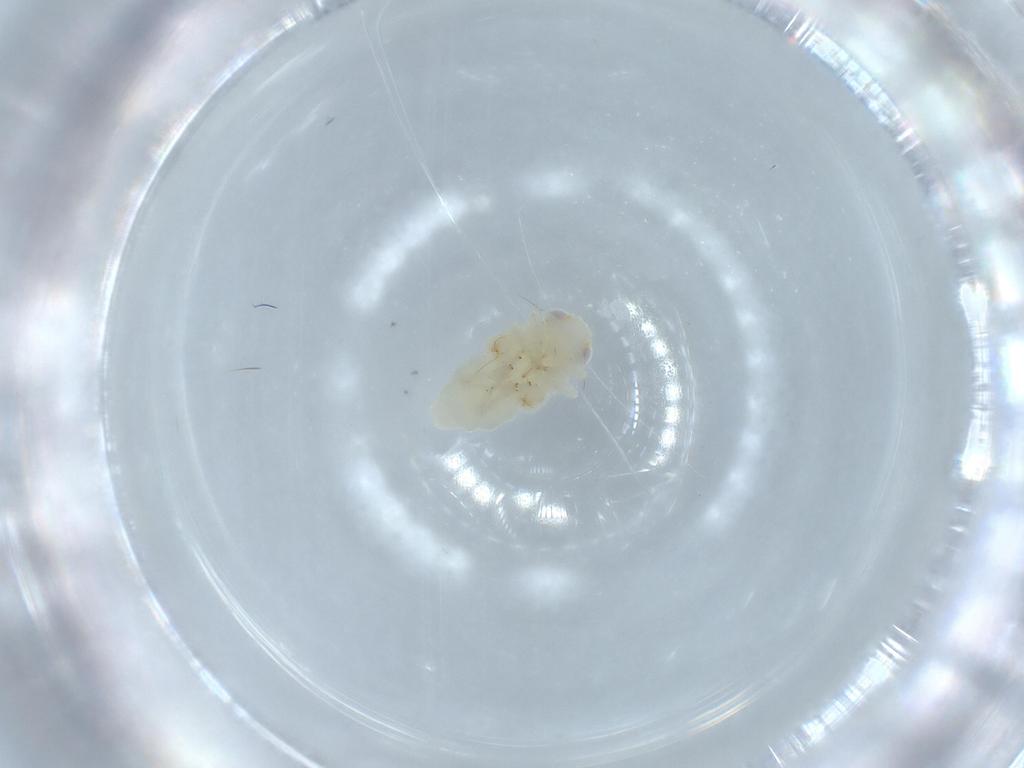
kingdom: Animalia
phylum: Arthropoda
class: Insecta
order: Hemiptera
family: Nogodinidae
